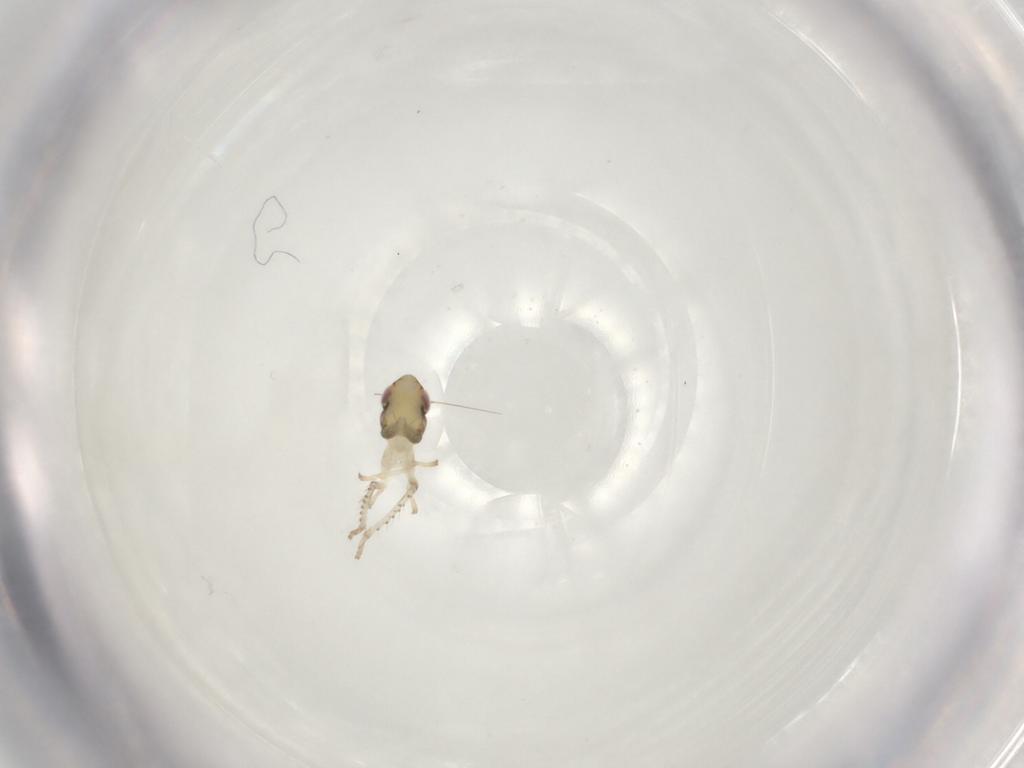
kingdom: Animalia
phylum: Arthropoda
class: Insecta
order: Hemiptera
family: Cicadellidae
